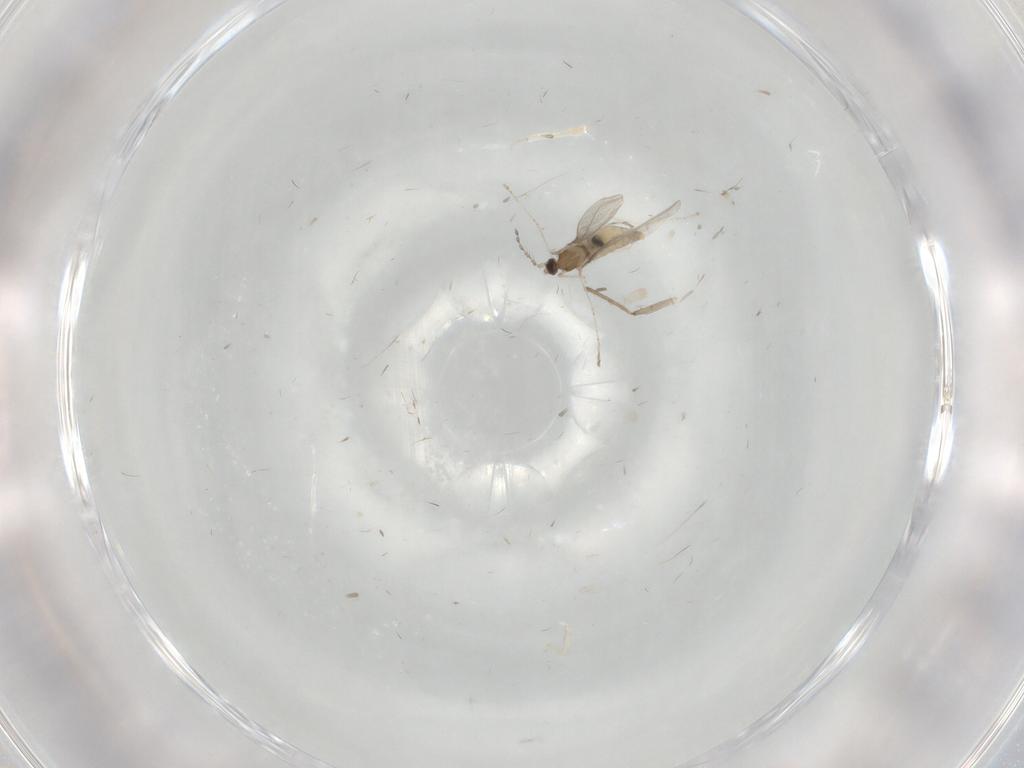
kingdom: Animalia
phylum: Arthropoda
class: Insecta
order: Diptera
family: Cecidomyiidae
